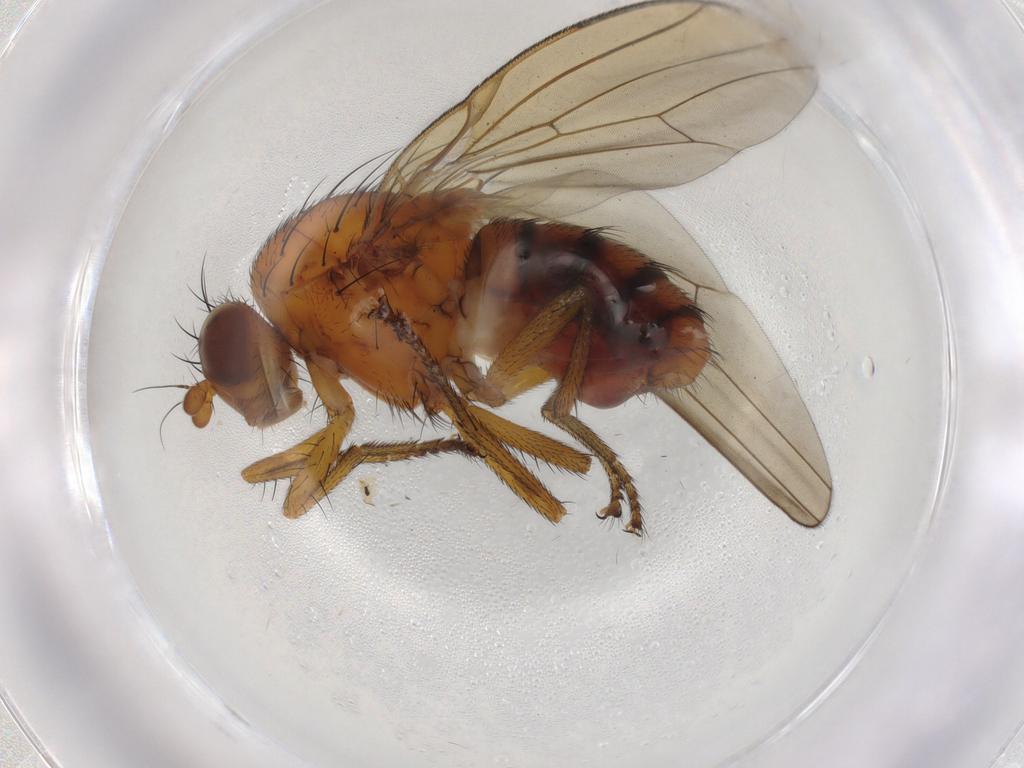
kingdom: Animalia
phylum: Arthropoda
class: Insecta
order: Diptera
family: Lauxaniidae
